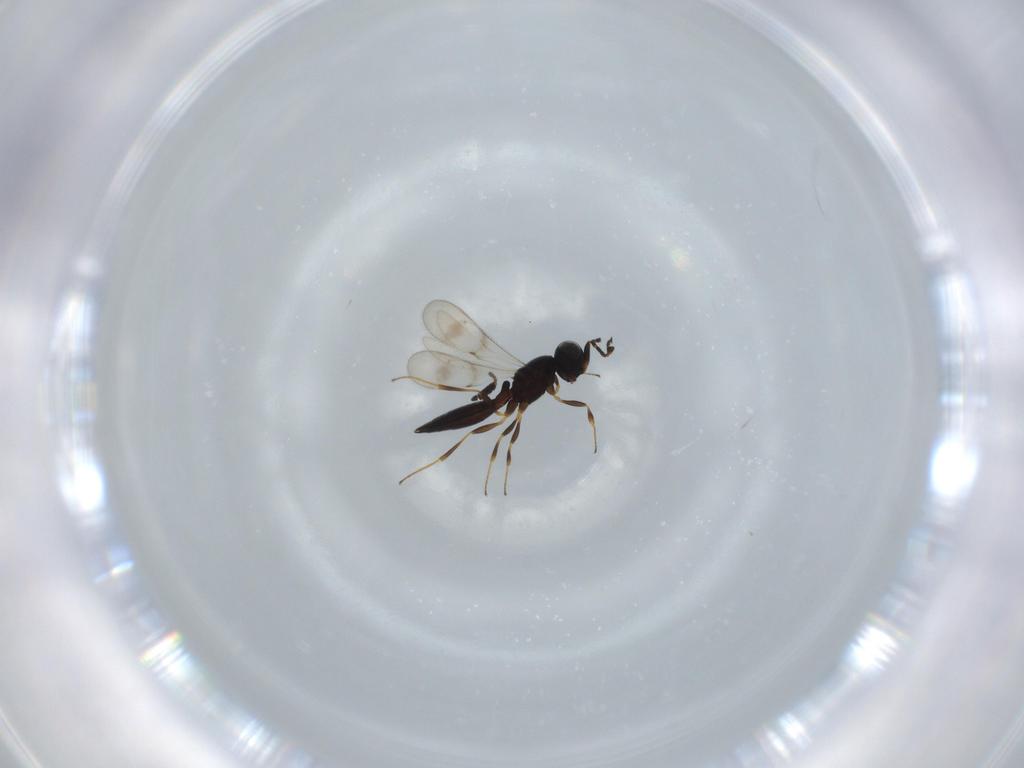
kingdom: Animalia
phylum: Arthropoda
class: Insecta
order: Hymenoptera
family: Scelionidae
